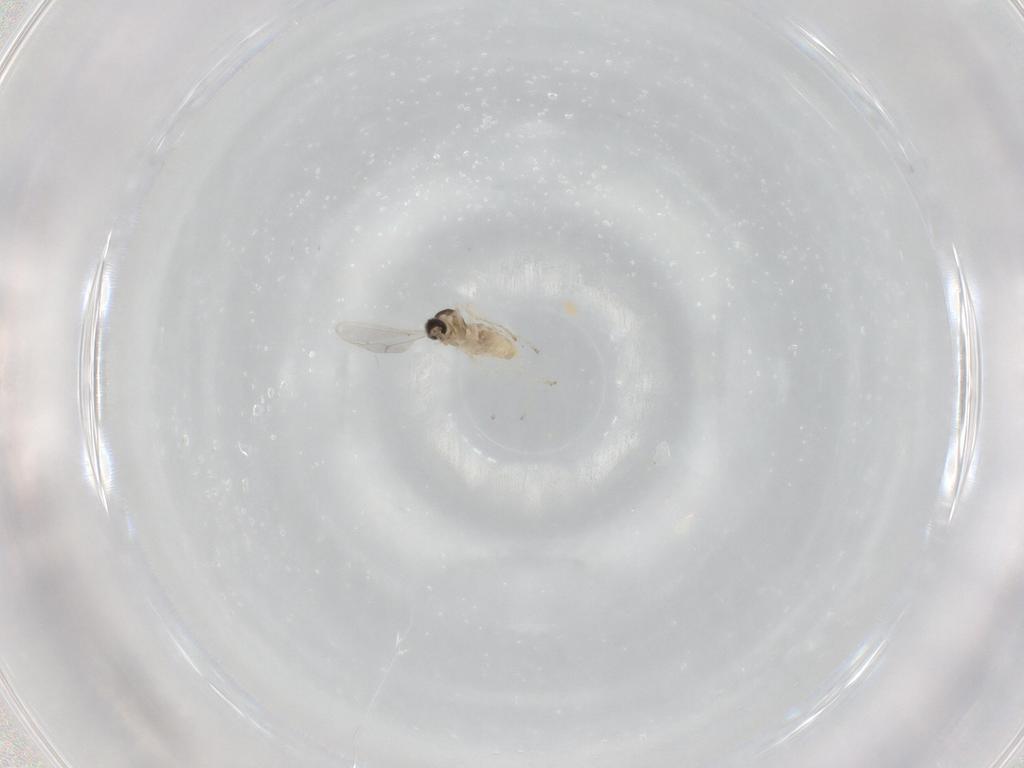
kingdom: Animalia
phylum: Arthropoda
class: Insecta
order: Diptera
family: Cecidomyiidae
